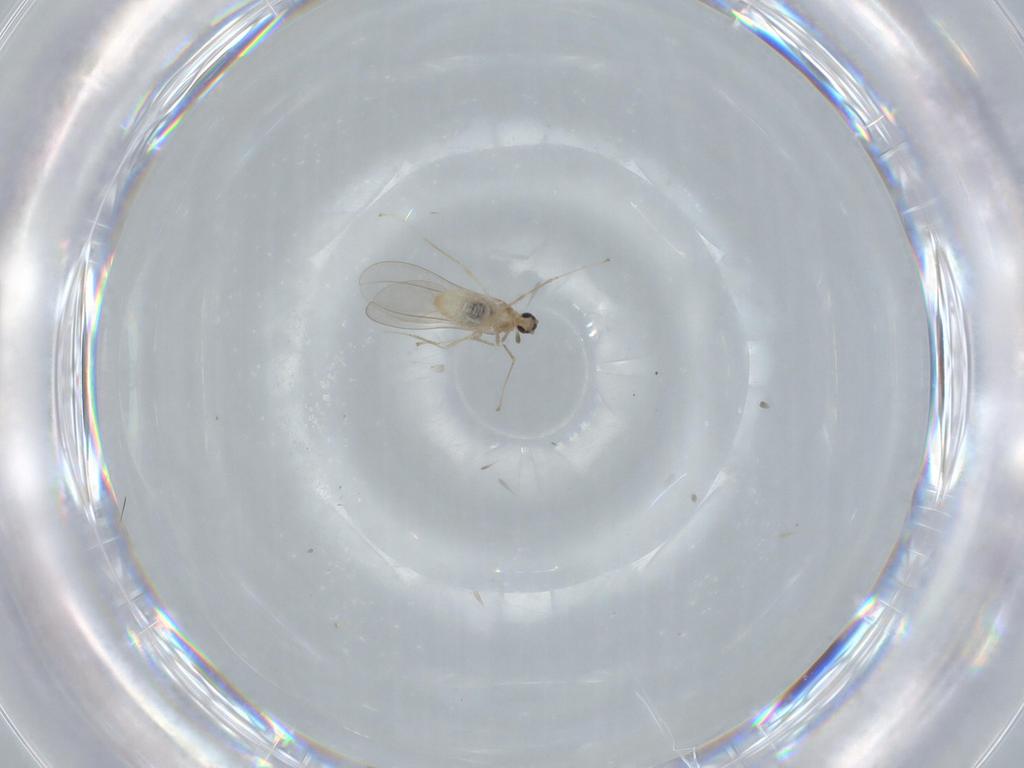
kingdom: Animalia
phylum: Arthropoda
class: Insecta
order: Diptera
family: Cecidomyiidae
